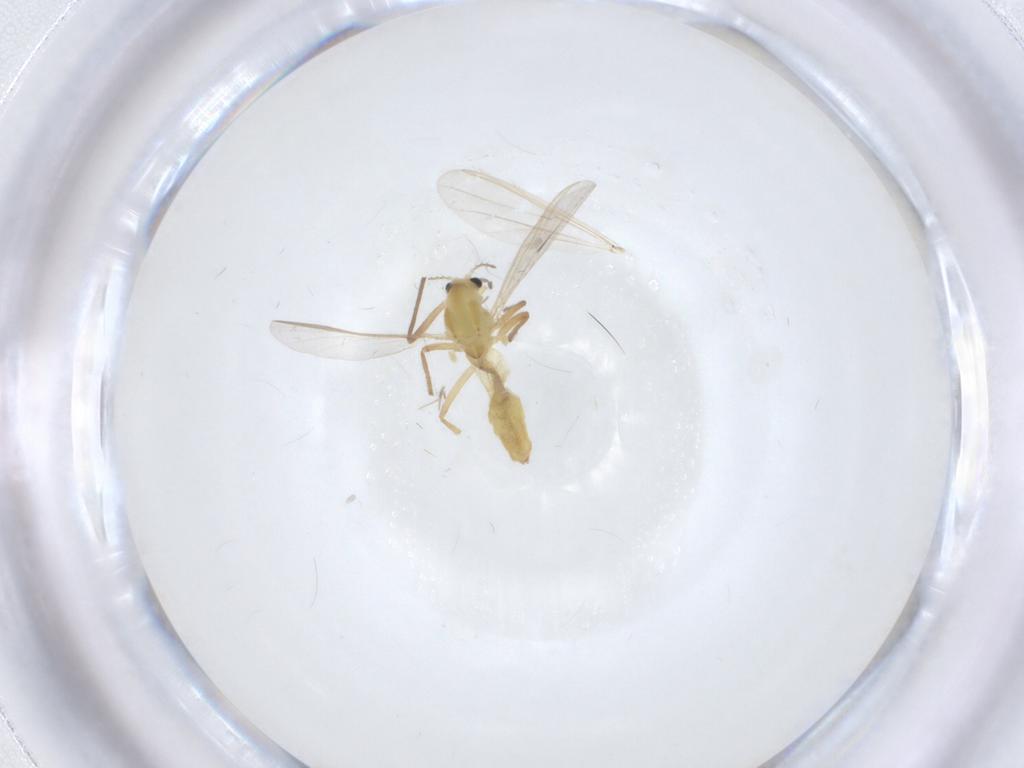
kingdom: Animalia
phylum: Arthropoda
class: Insecta
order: Diptera
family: Chironomidae
